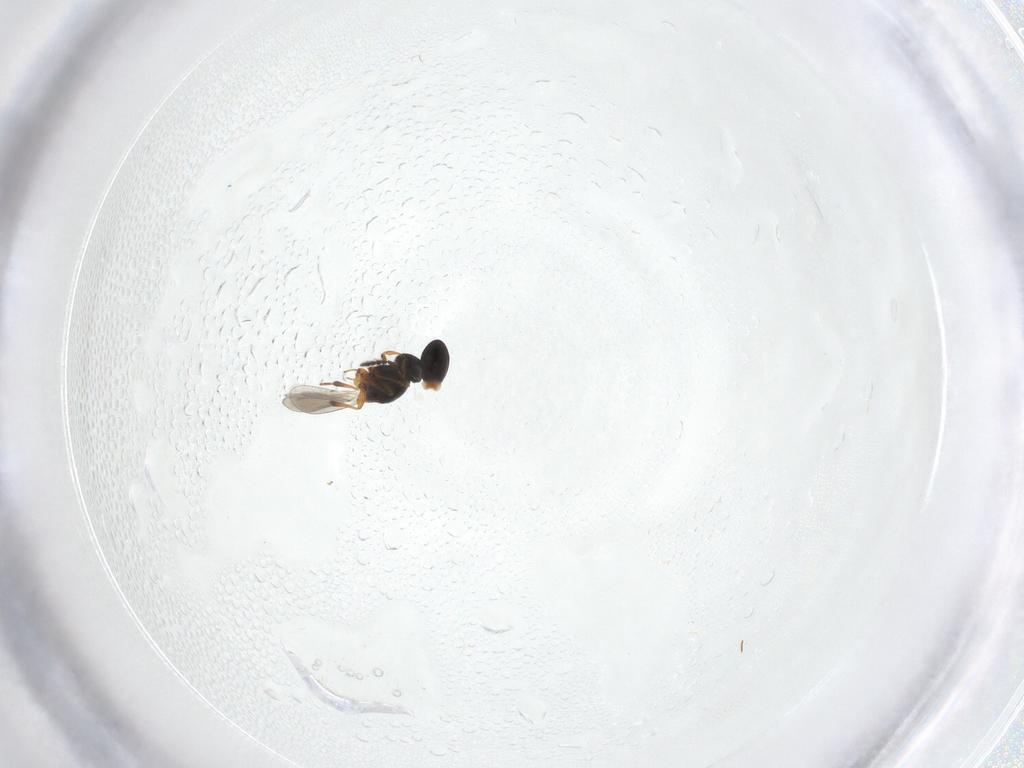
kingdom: Animalia
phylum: Arthropoda
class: Insecta
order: Hymenoptera
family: Platygastridae
